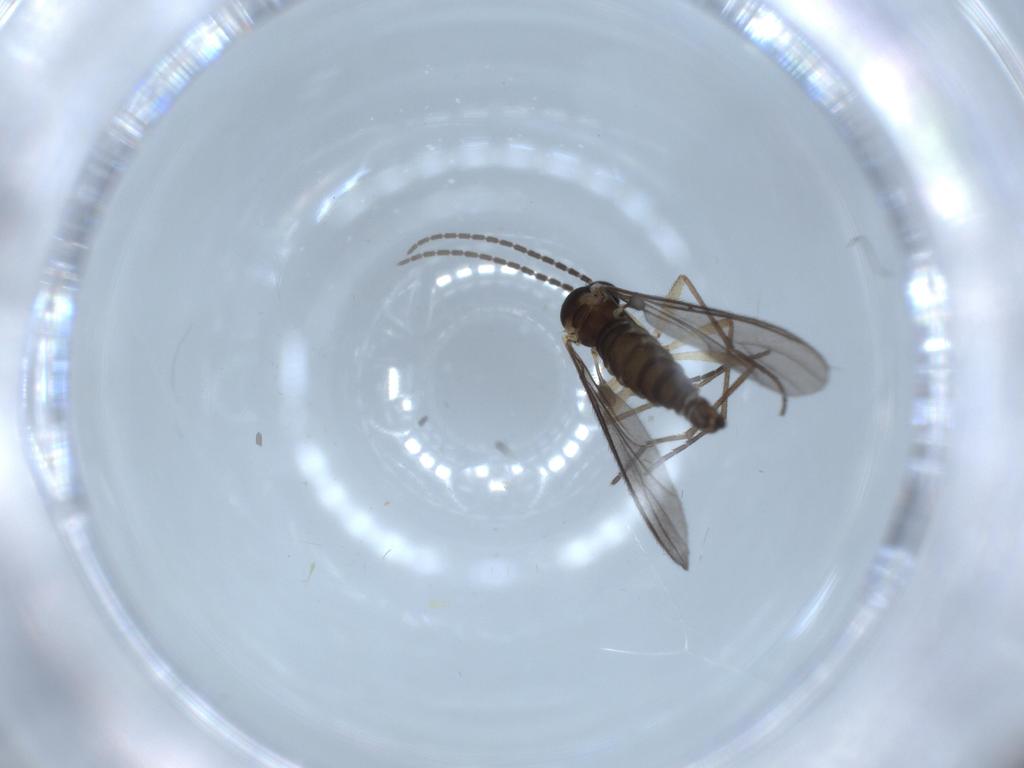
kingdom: Animalia
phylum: Arthropoda
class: Insecta
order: Diptera
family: Sciaridae
